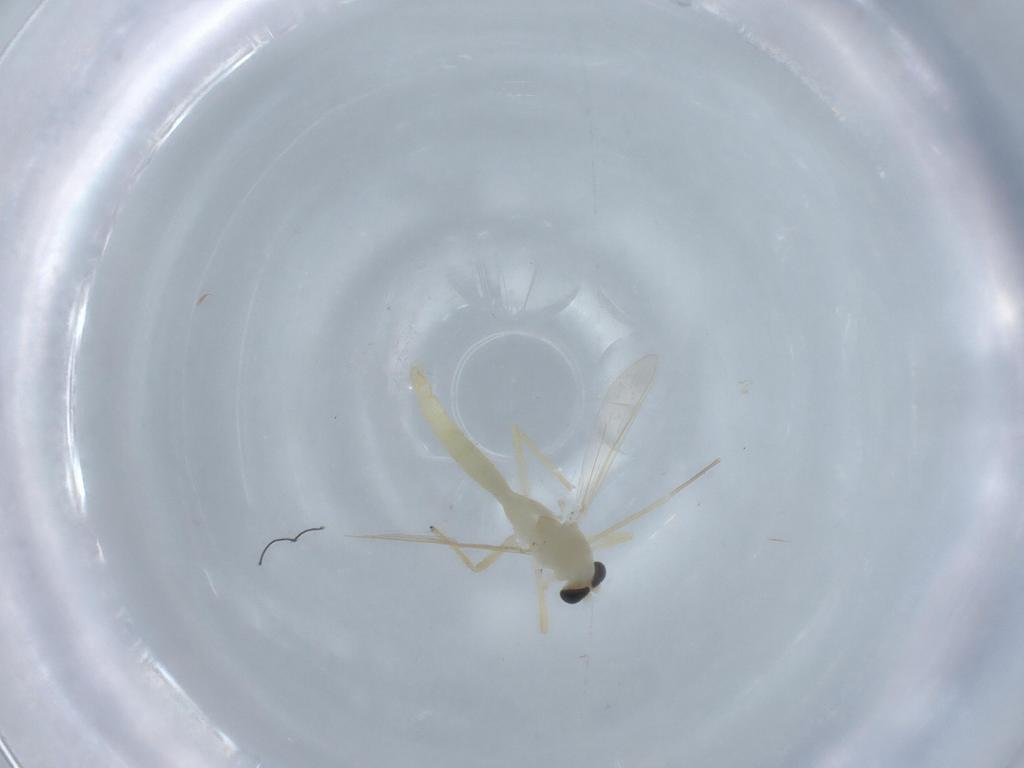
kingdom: Animalia
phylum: Arthropoda
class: Insecta
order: Diptera
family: Chironomidae
